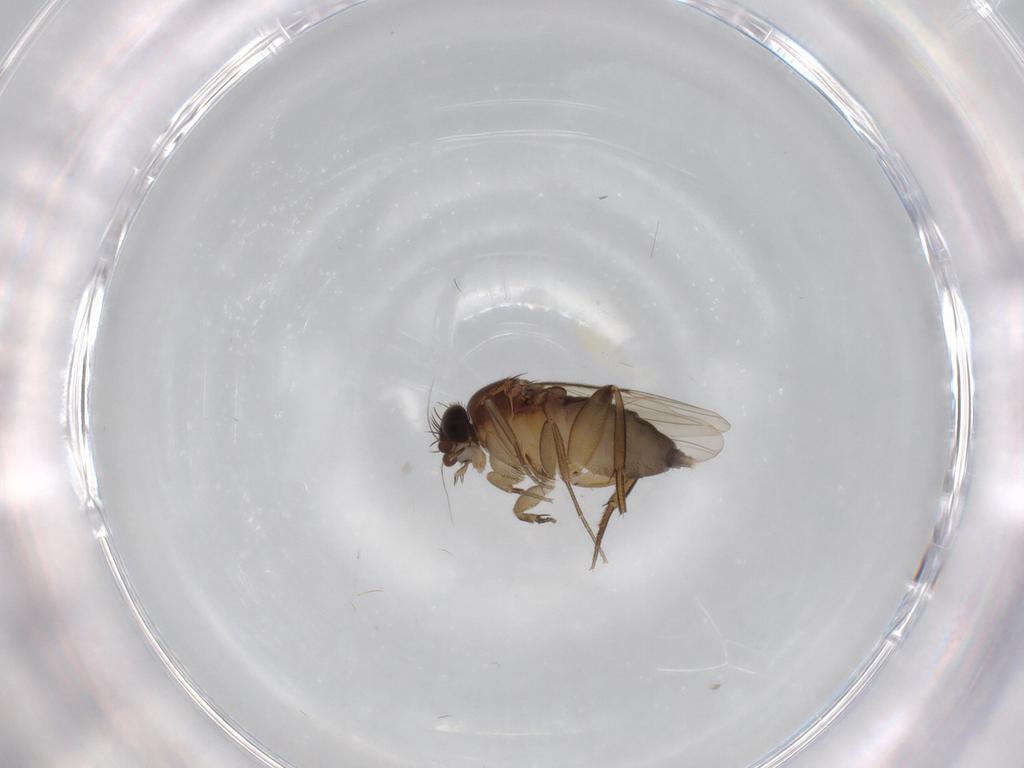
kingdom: Animalia
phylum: Arthropoda
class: Insecta
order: Diptera
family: Phoridae
